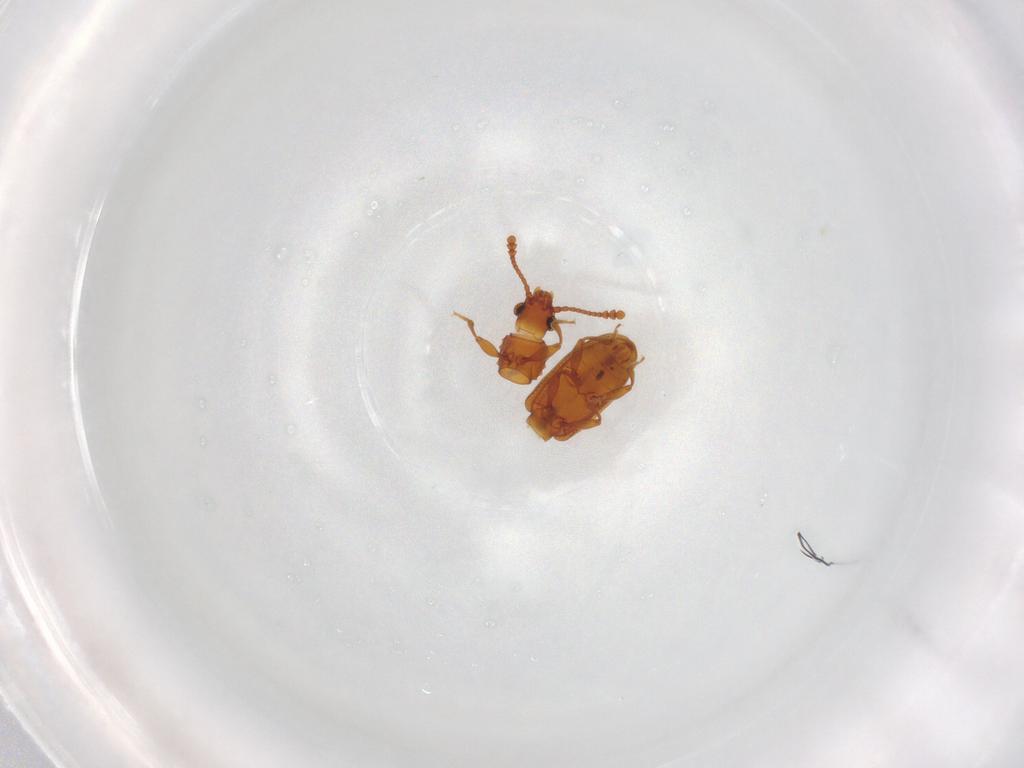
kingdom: Animalia
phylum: Arthropoda
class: Insecta
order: Coleoptera
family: Silvanidae
